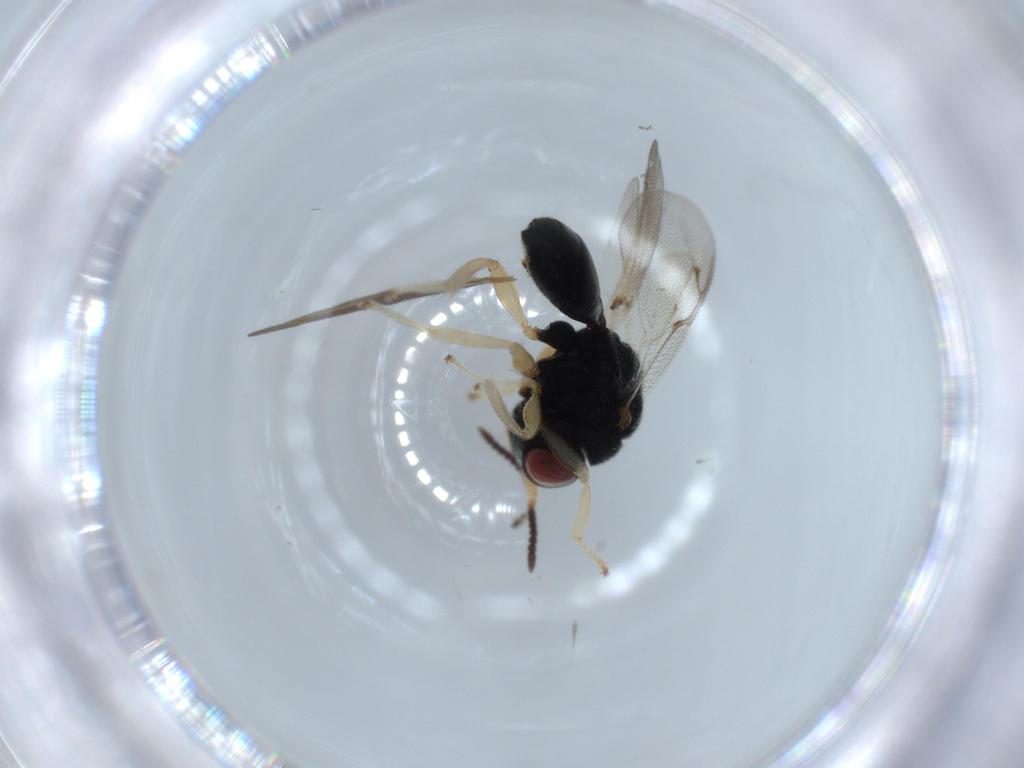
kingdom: Animalia
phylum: Arthropoda
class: Insecta
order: Hymenoptera
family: Eurytomidae
